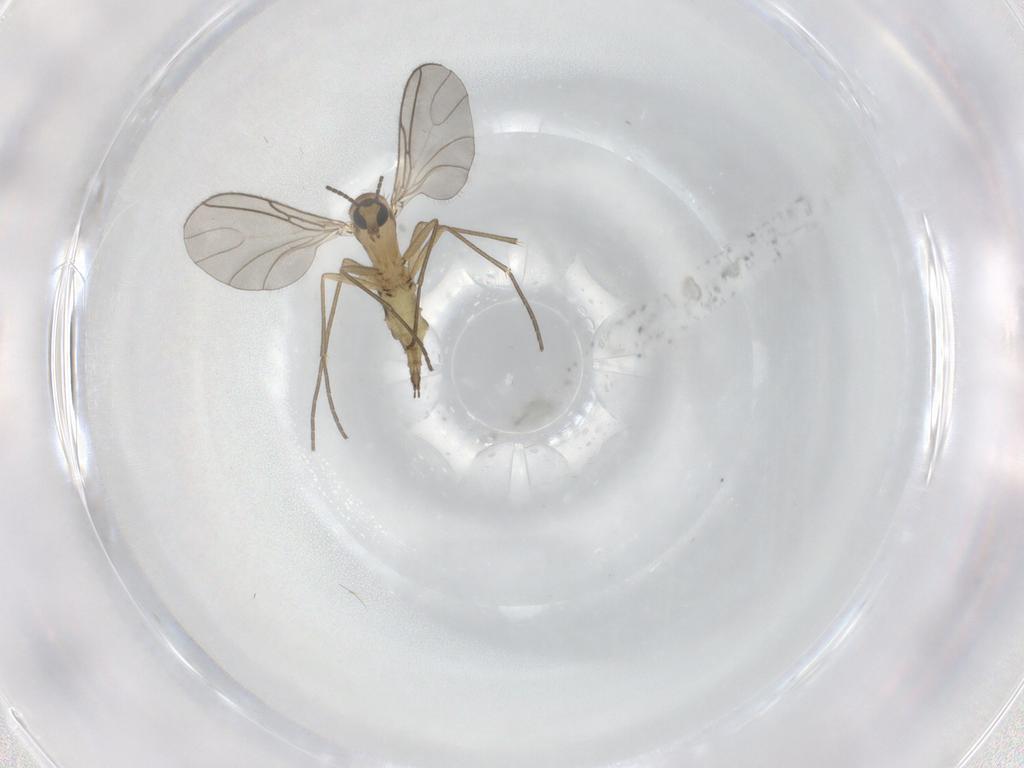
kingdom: Animalia
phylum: Arthropoda
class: Insecta
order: Diptera
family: Sciaridae
